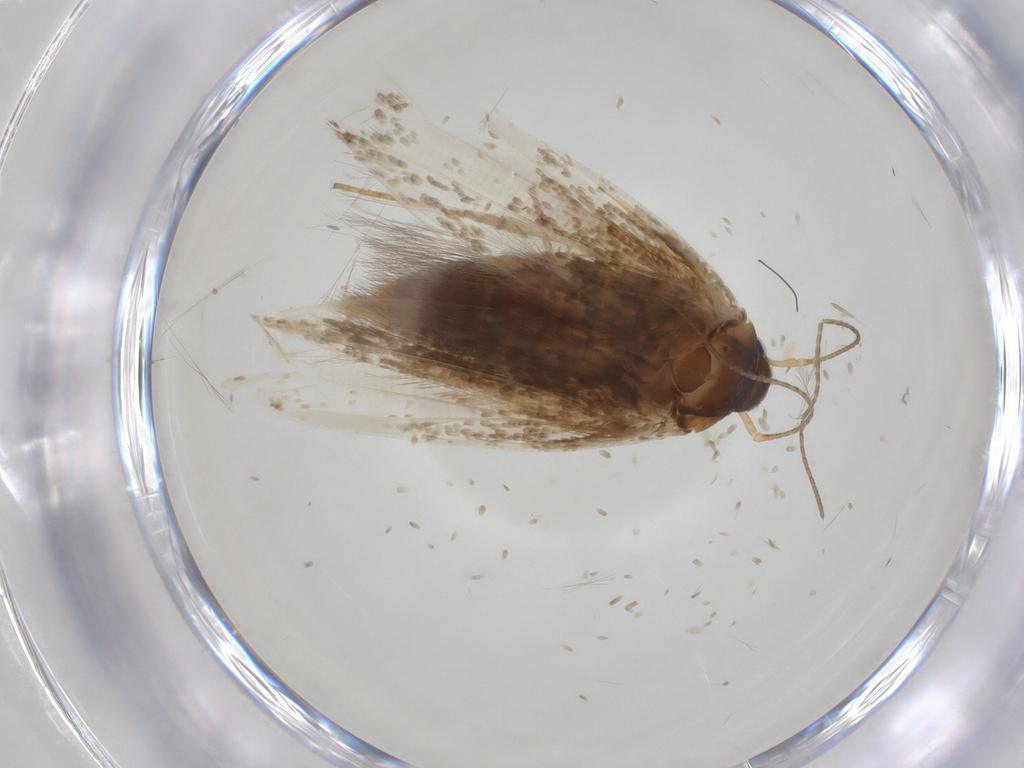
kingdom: Animalia
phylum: Arthropoda
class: Insecta
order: Lepidoptera
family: Blastobasidae
